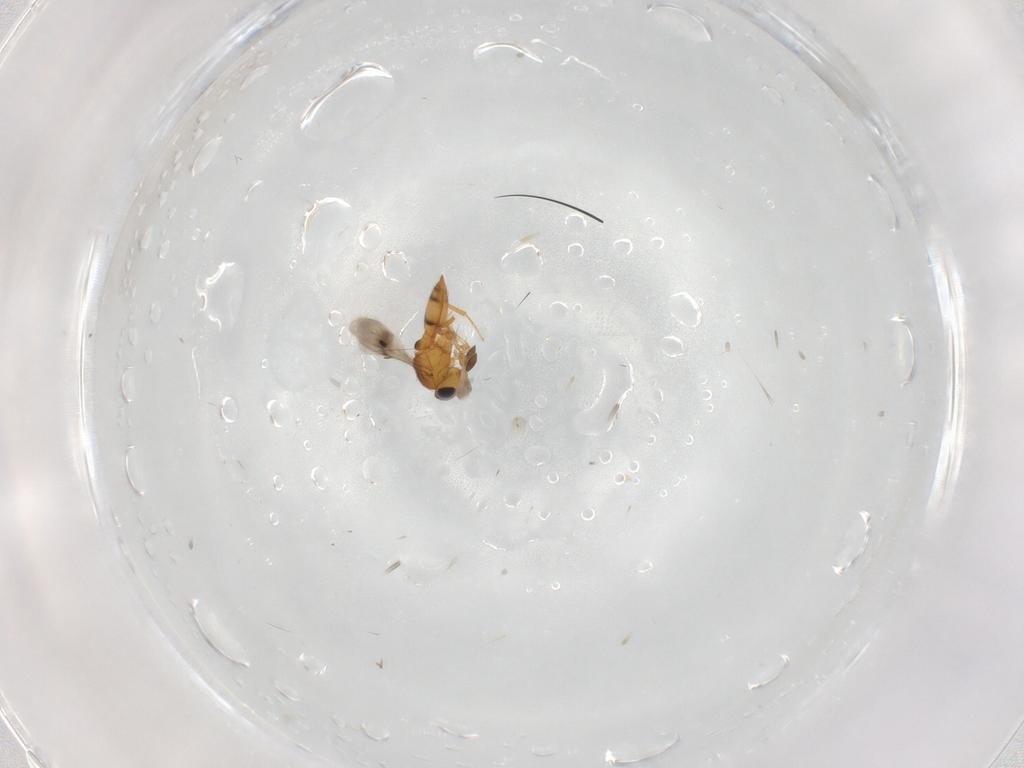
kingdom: Animalia
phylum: Arthropoda
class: Insecta
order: Hymenoptera
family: Scelionidae
